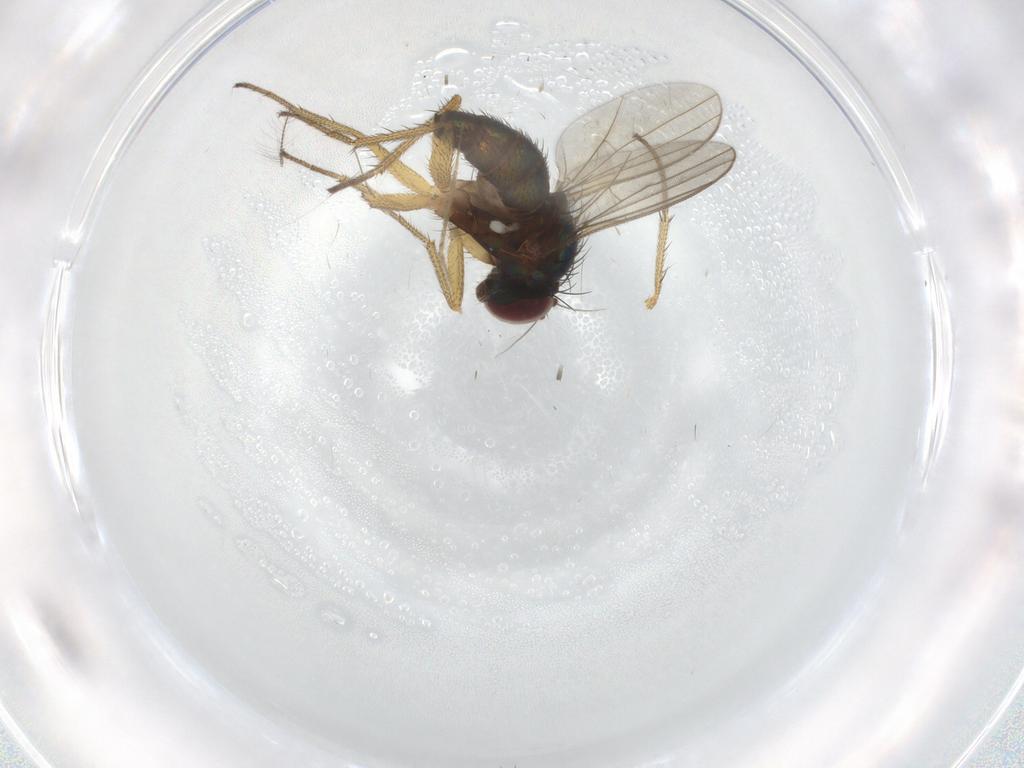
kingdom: Animalia
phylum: Arthropoda
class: Insecta
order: Diptera
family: Dolichopodidae
